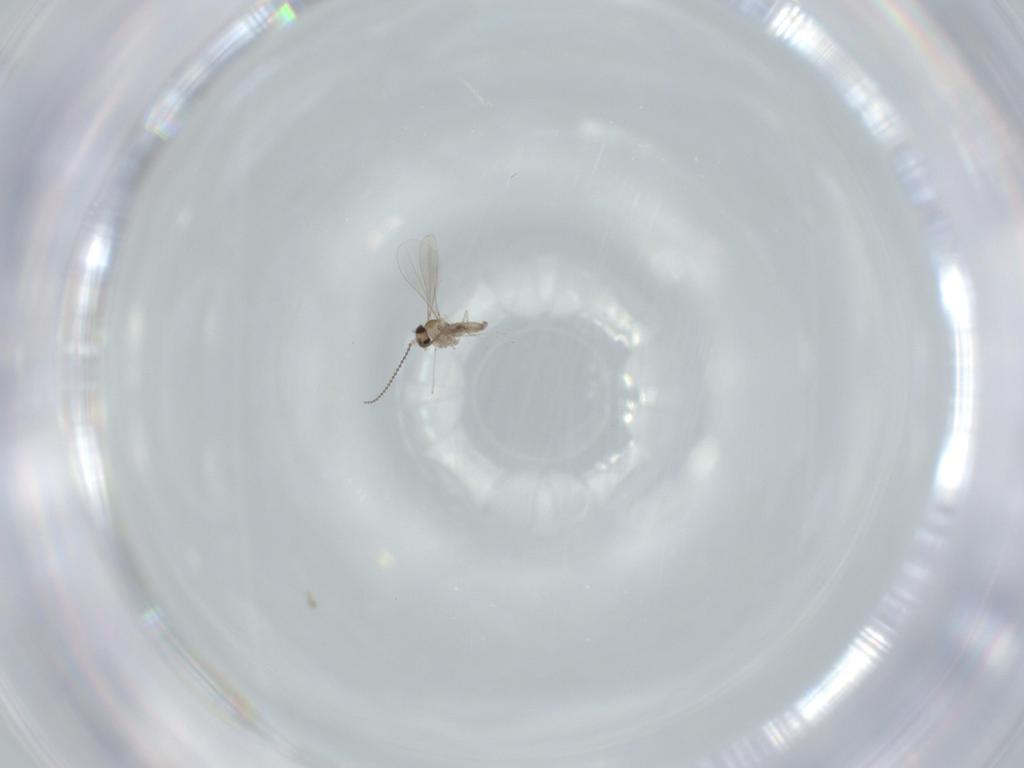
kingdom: Animalia
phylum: Arthropoda
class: Insecta
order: Diptera
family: Cecidomyiidae
